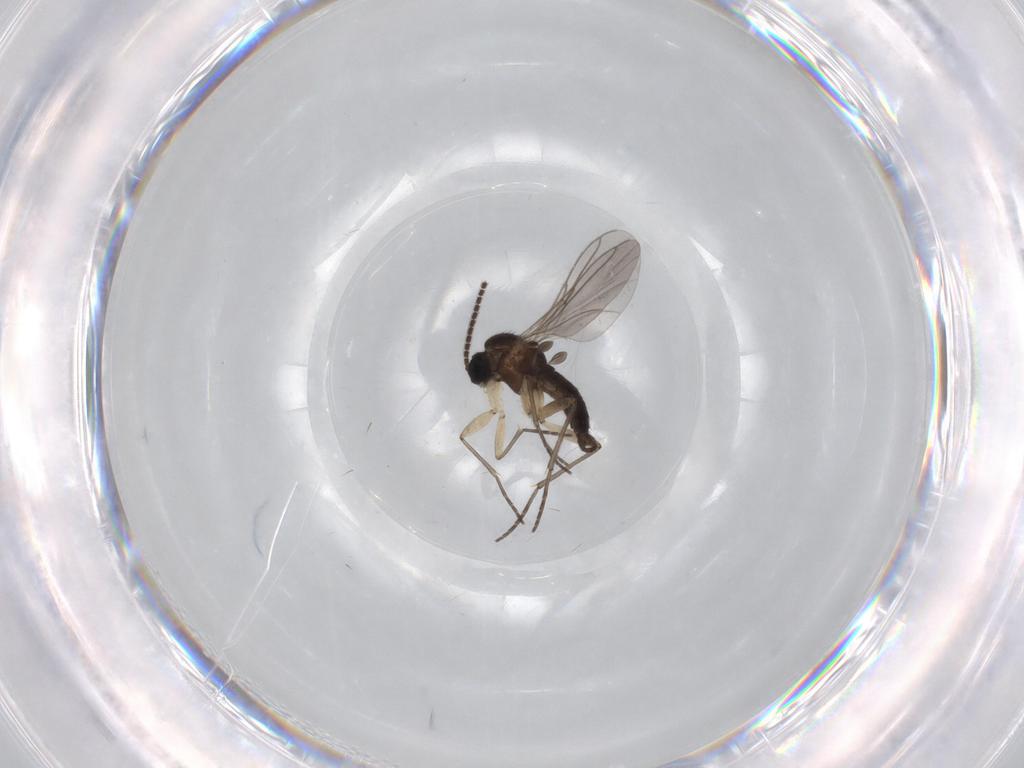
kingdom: Animalia
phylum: Arthropoda
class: Insecta
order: Diptera
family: Sciaridae
